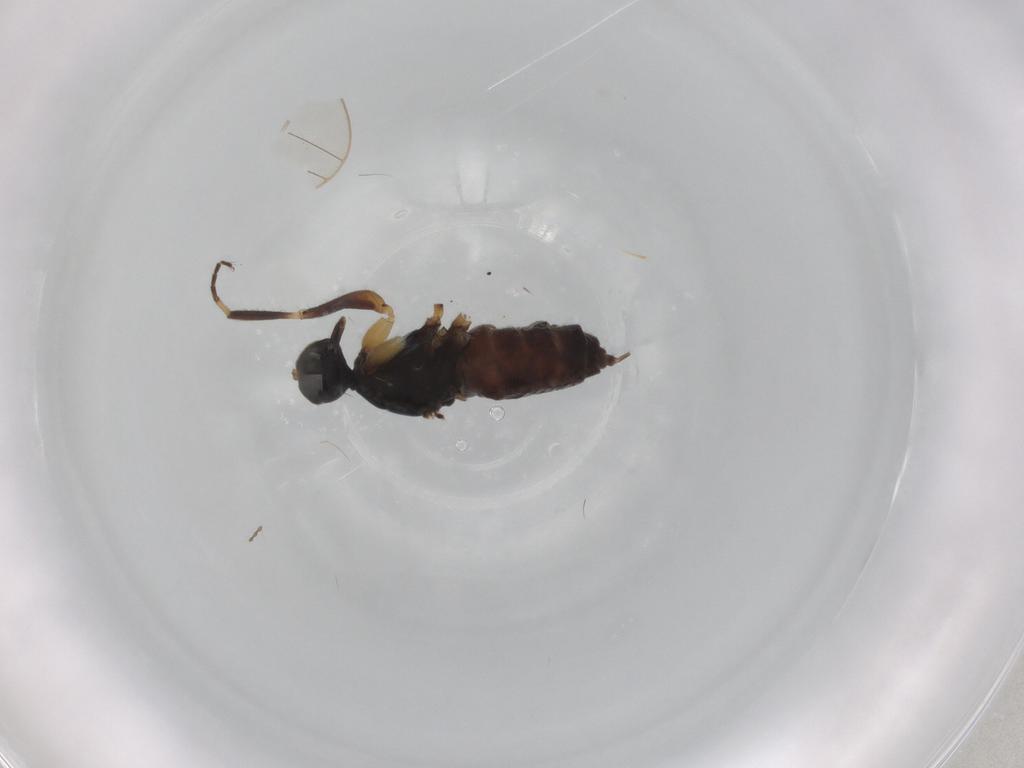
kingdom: Animalia
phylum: Arthropoda
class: Insecta
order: Diptera
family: Hybotidae
